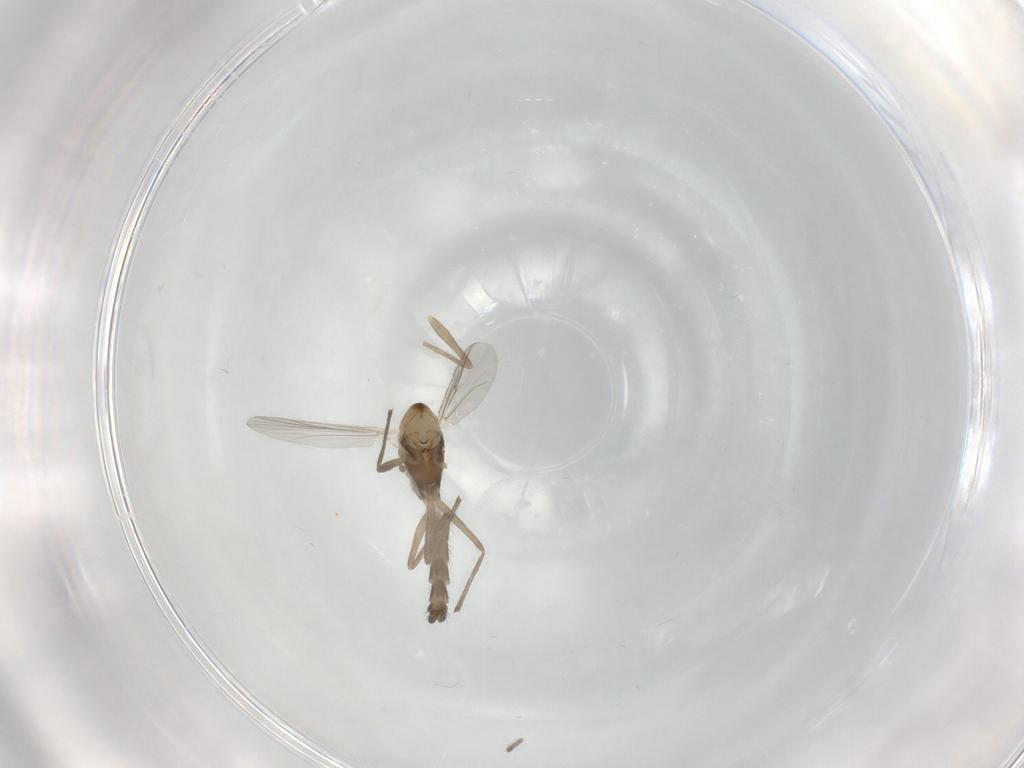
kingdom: Animalia
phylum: Arthropoda
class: Insecta
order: Diptera
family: Chironomidae
